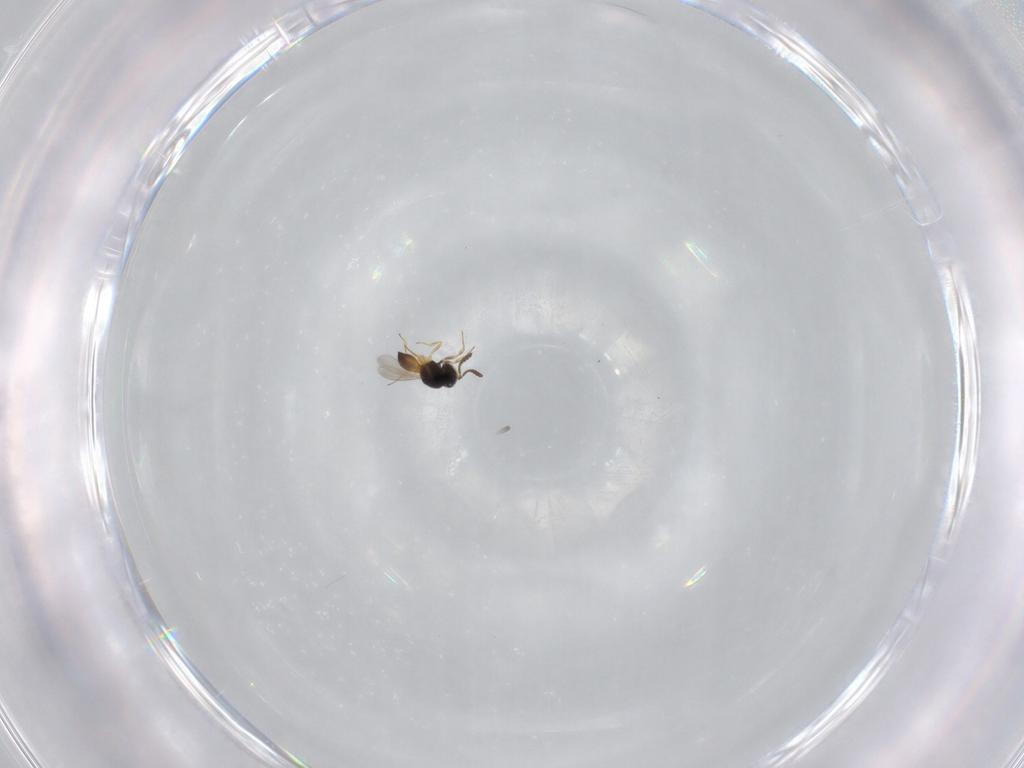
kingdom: Animalia
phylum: Arthropoda
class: Insecta
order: Hymenoptera
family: Scelionidae
